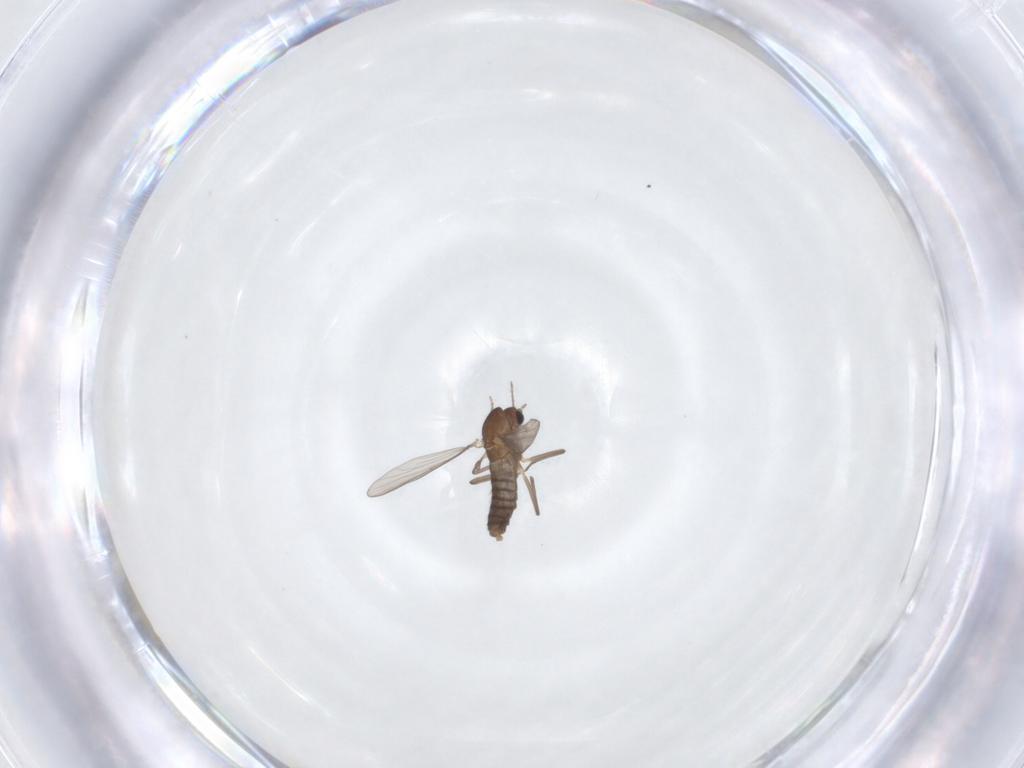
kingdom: Animalia
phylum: Arthropoda
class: Insecta
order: Diptera
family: Chironomidae
